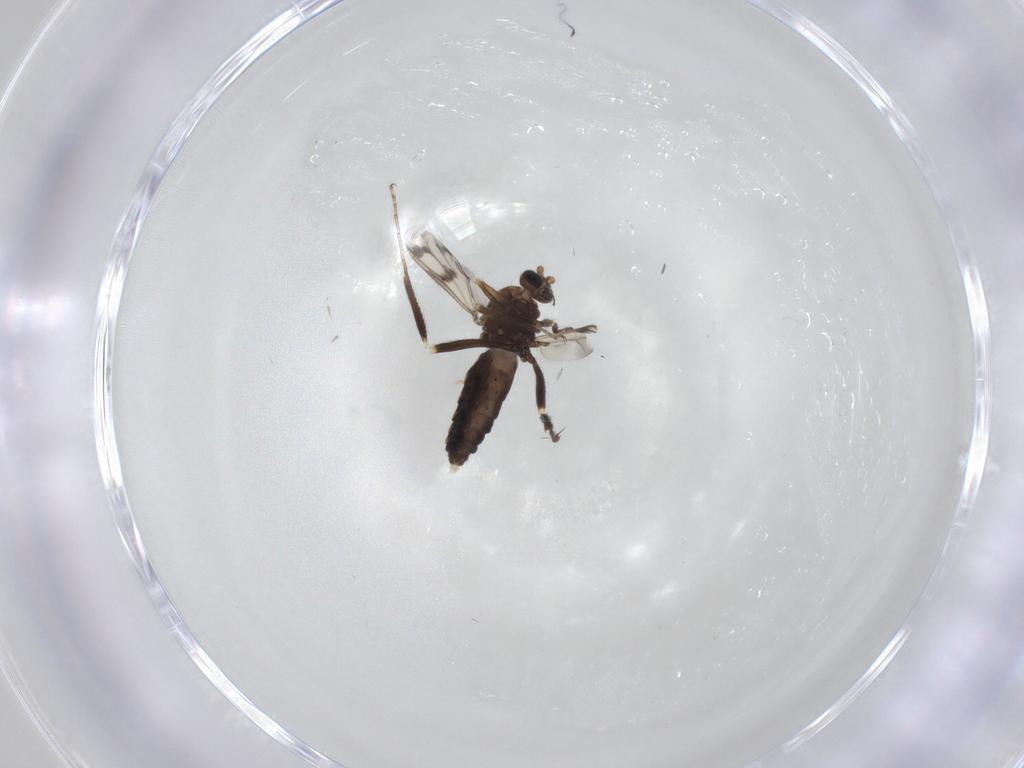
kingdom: Animalia
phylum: Arthropoda
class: Insecta
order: Diptera
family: Ceratopogonidae
